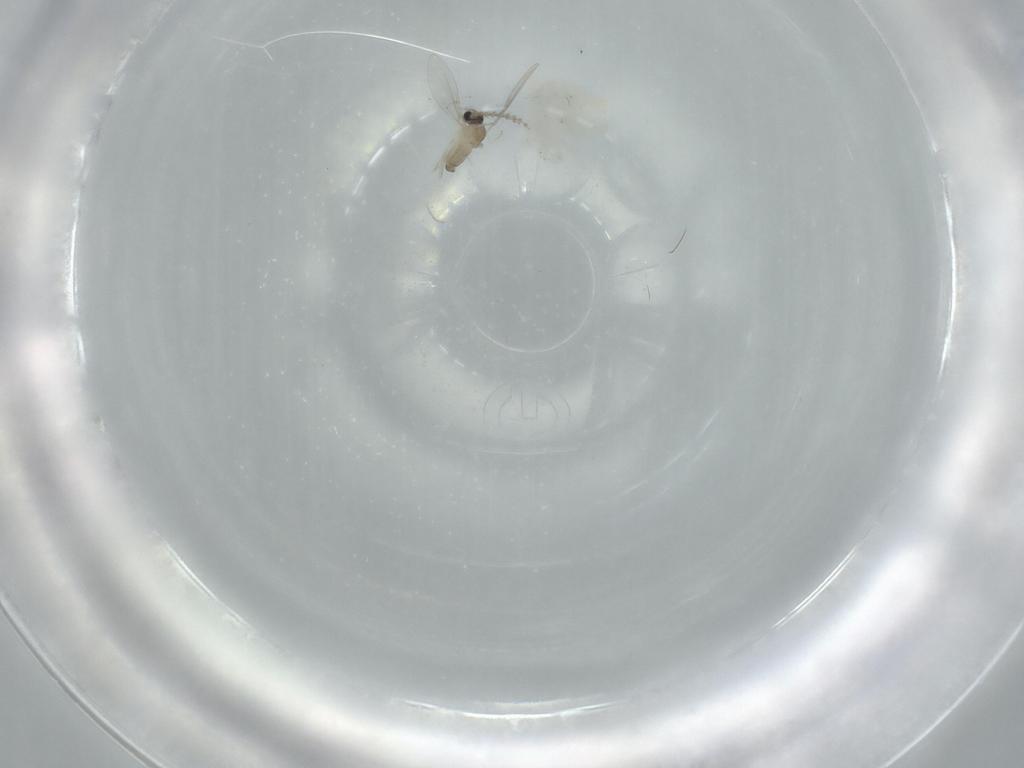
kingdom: Animalia
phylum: Arthropoda
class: Insecta
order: Diptera
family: Cecidomyiidae
